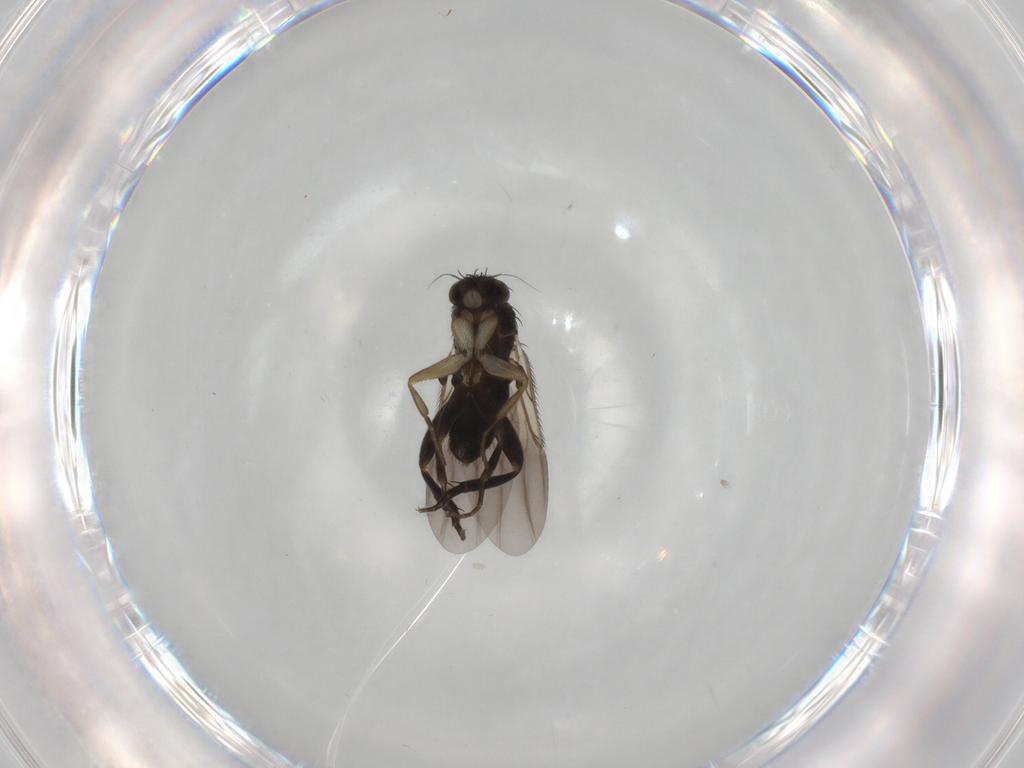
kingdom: Animalia
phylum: Arthropoda
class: Insecta
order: Diptera
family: Phoridae
